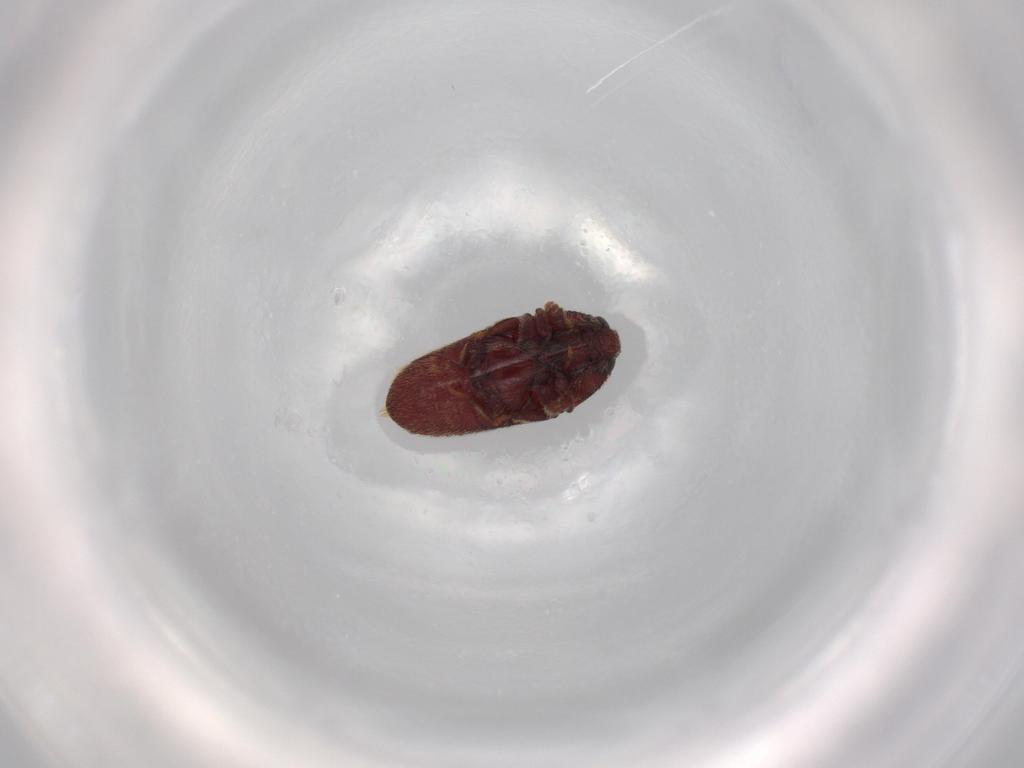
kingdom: Animalia
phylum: Arthropoda
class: Insecta
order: Coleoptera
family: Throscidae
